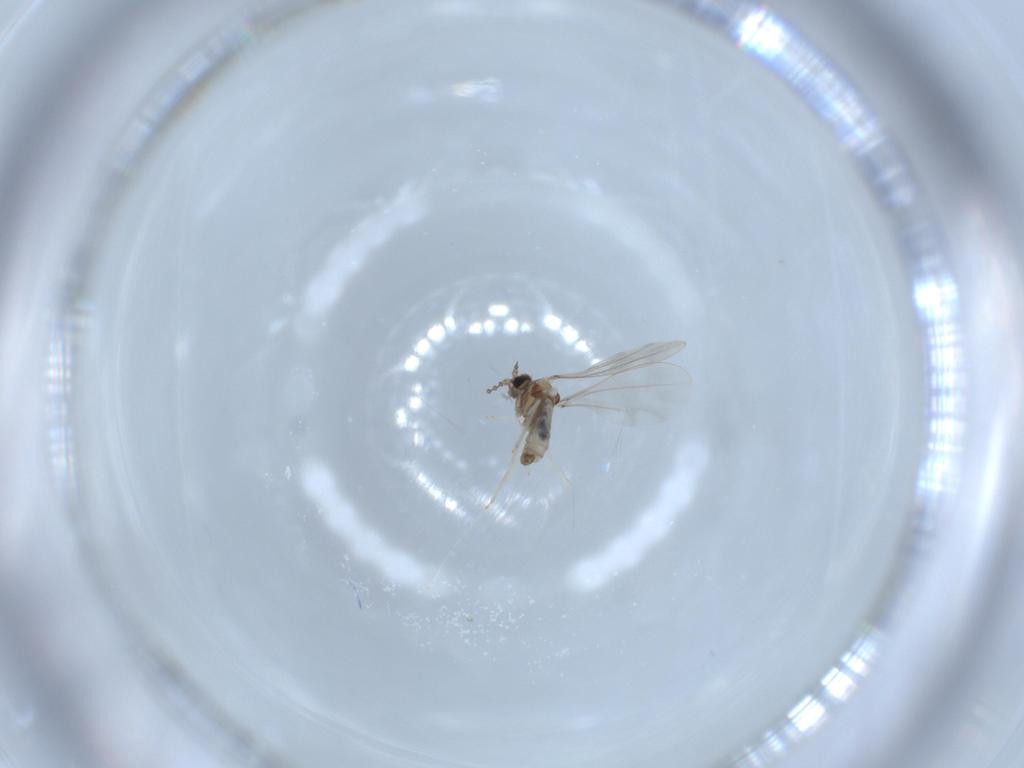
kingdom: Animalia
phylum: Arthropoda
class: Insecta
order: Diptera
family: Cecidomyiidae
